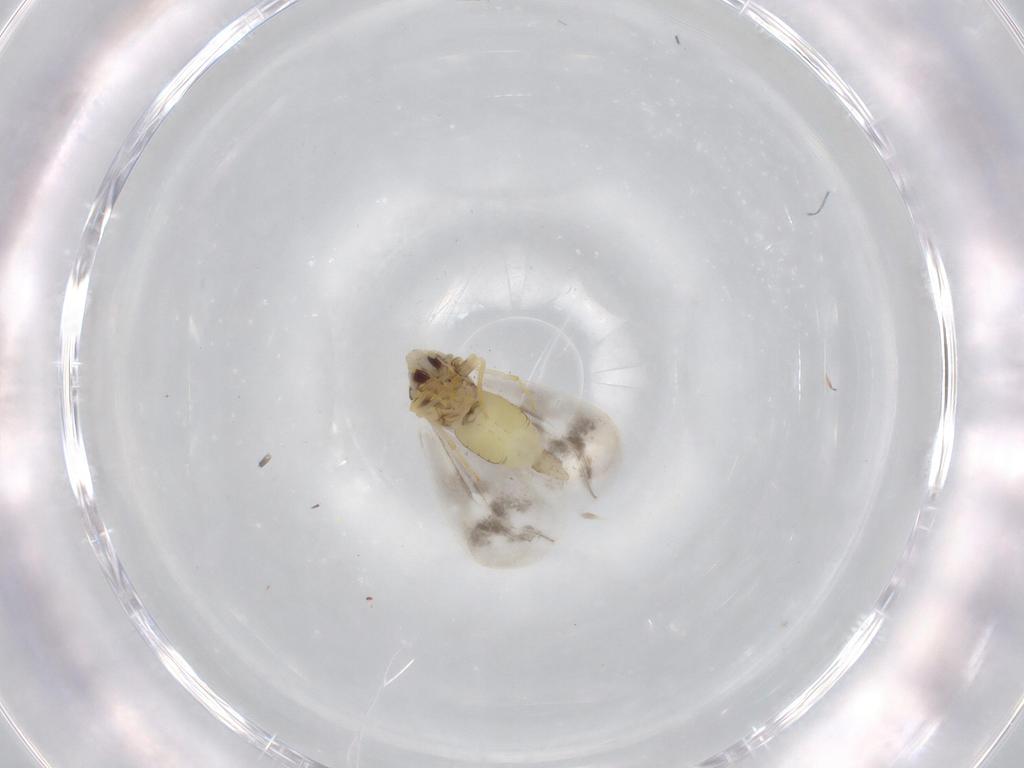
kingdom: Animalia
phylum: Arthropoda
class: Insecta
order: Hemiptera
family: Aleyrodidae
